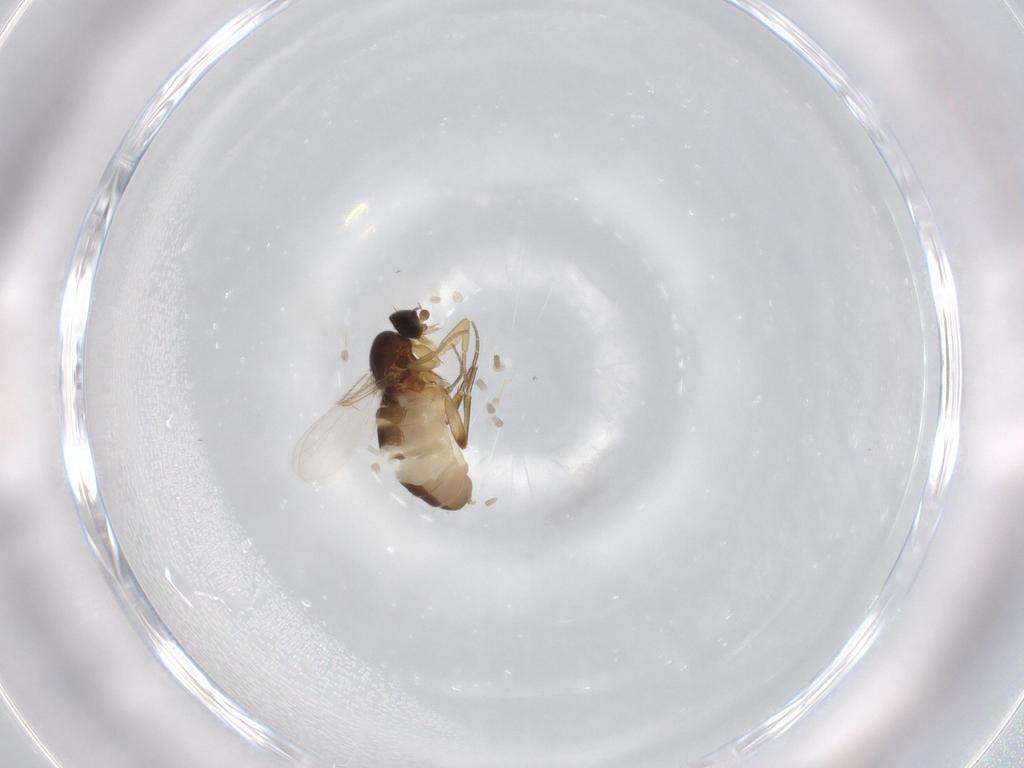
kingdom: Animalia
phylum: Arthropoda
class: Insecta
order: Diptera
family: Phoridae
